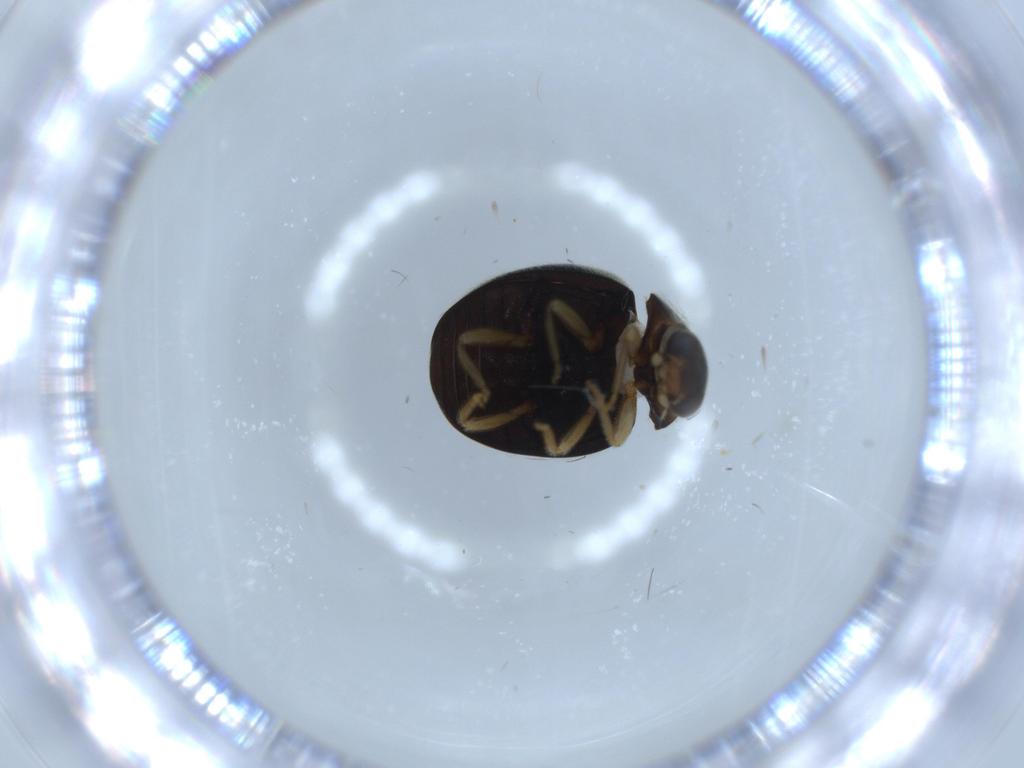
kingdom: Animalia
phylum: Arthropoda
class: Insecta
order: Coleoptera
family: Coccinellidae
